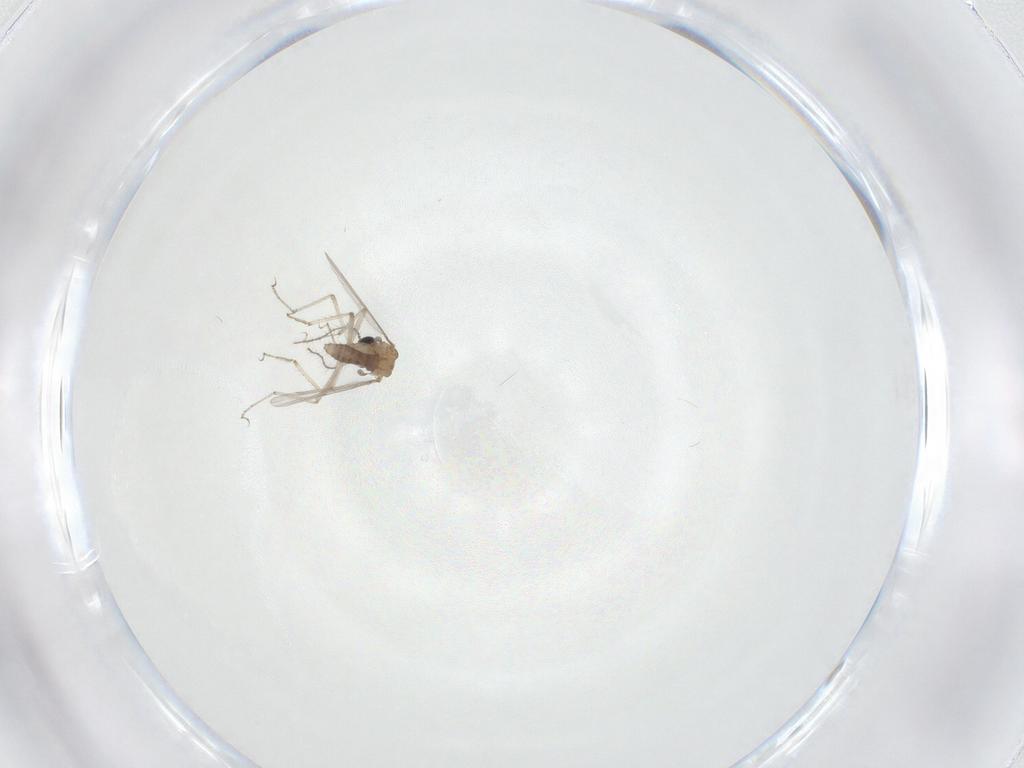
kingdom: Animalia
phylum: Arthropoda
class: Insecta
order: Diptera
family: Ceratopogonidae
